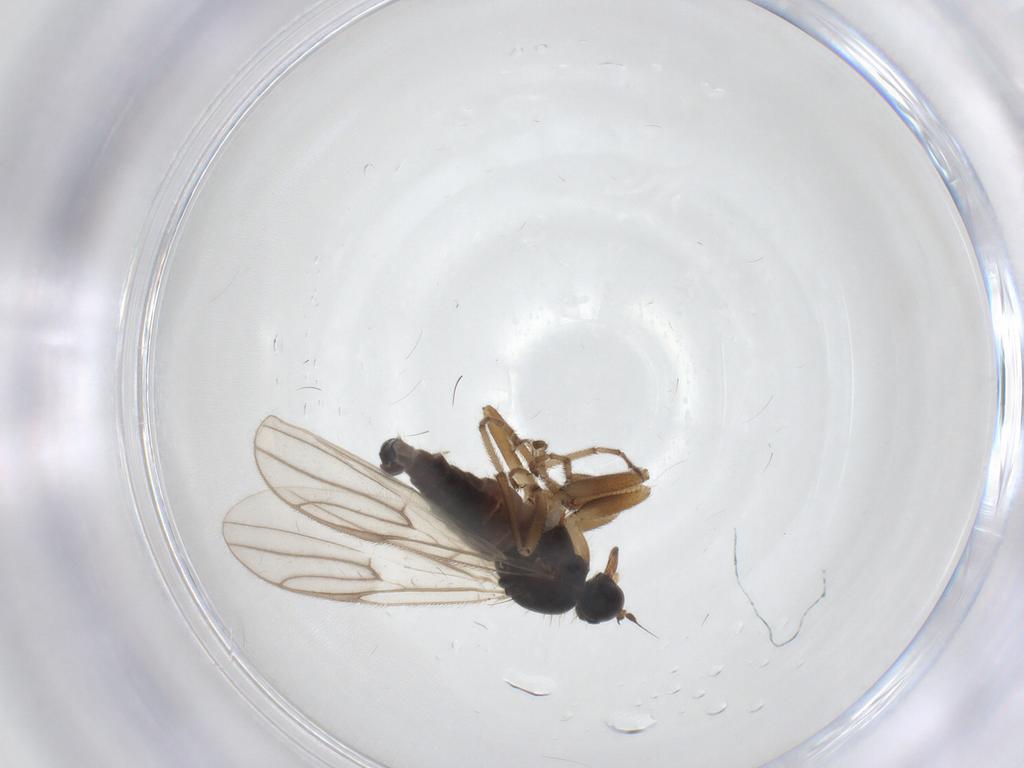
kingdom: Animalia
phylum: Arthropoda
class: Insecta
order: Diptera
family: Hybotidae
